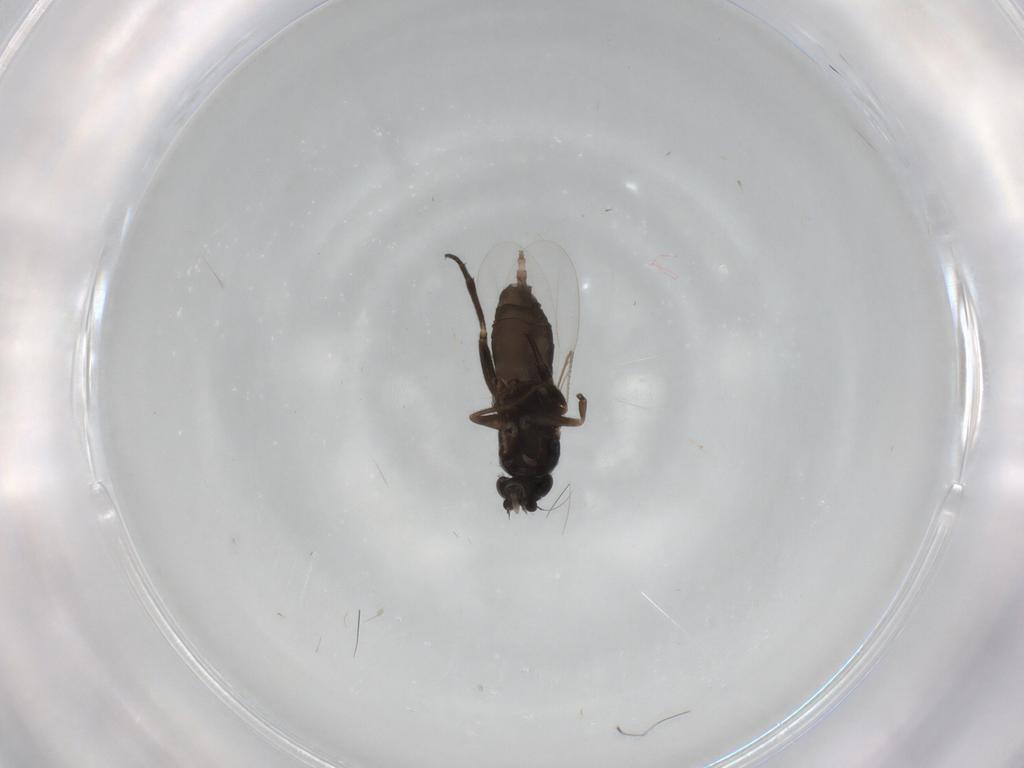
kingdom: Animalia
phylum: Arthropoda
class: Insecta
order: Diptera
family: Phoridae
